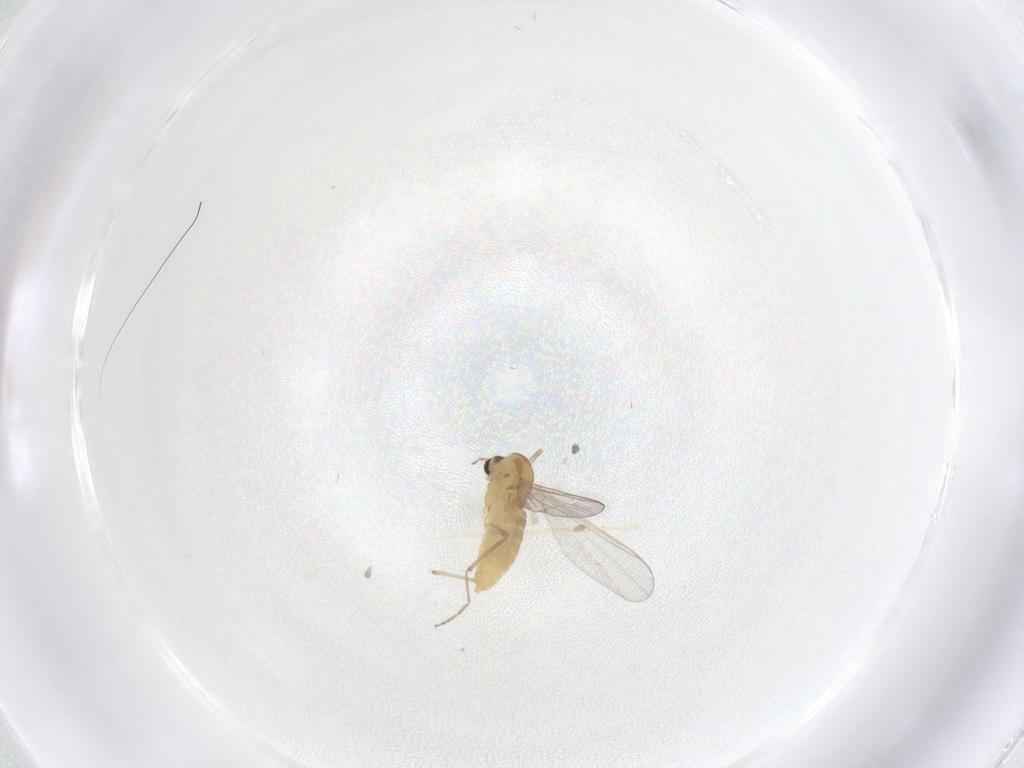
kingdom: Animalia
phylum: Arthropoda
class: Insecta
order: Diptera
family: Chironomidae
